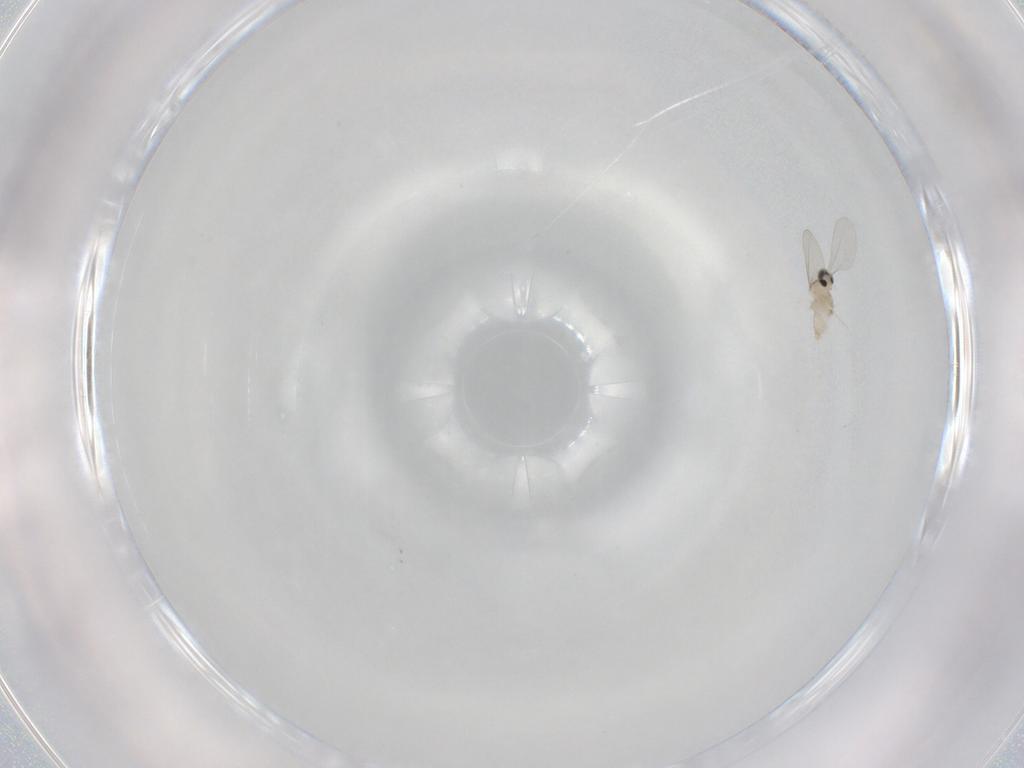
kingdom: Animalia
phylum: Arthropoda
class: Insecta
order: Diptera
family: Cecidomyiidae
